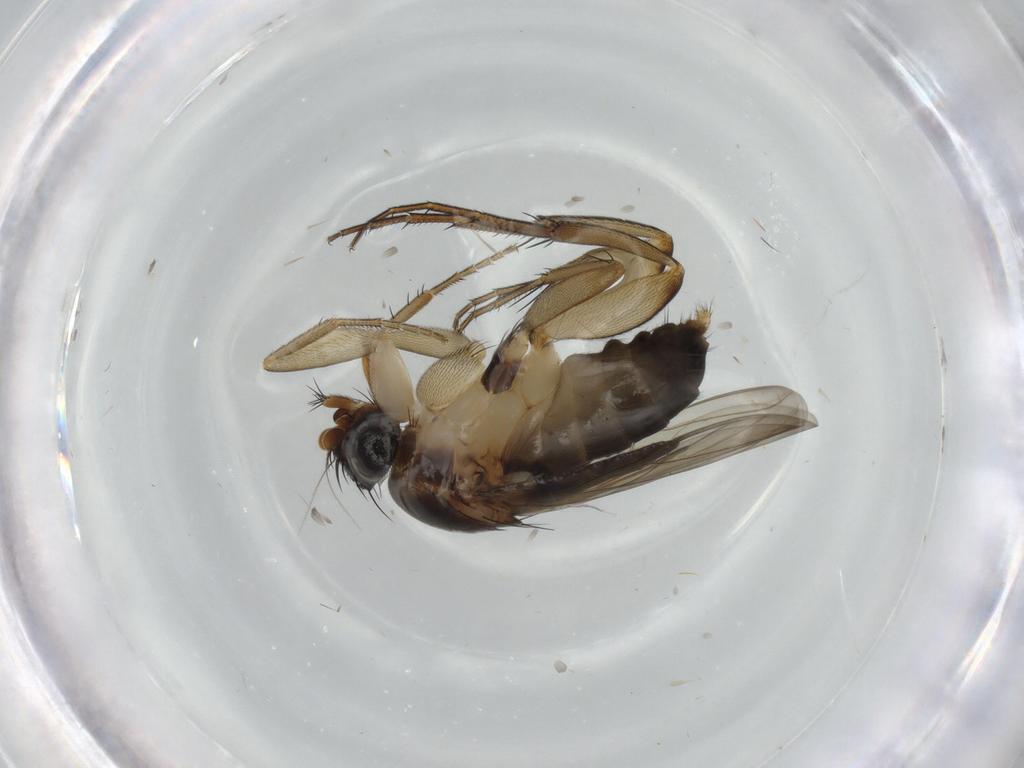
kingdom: Animalia
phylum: Arthropoda
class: Insecta
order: Diptera
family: Phoridae
